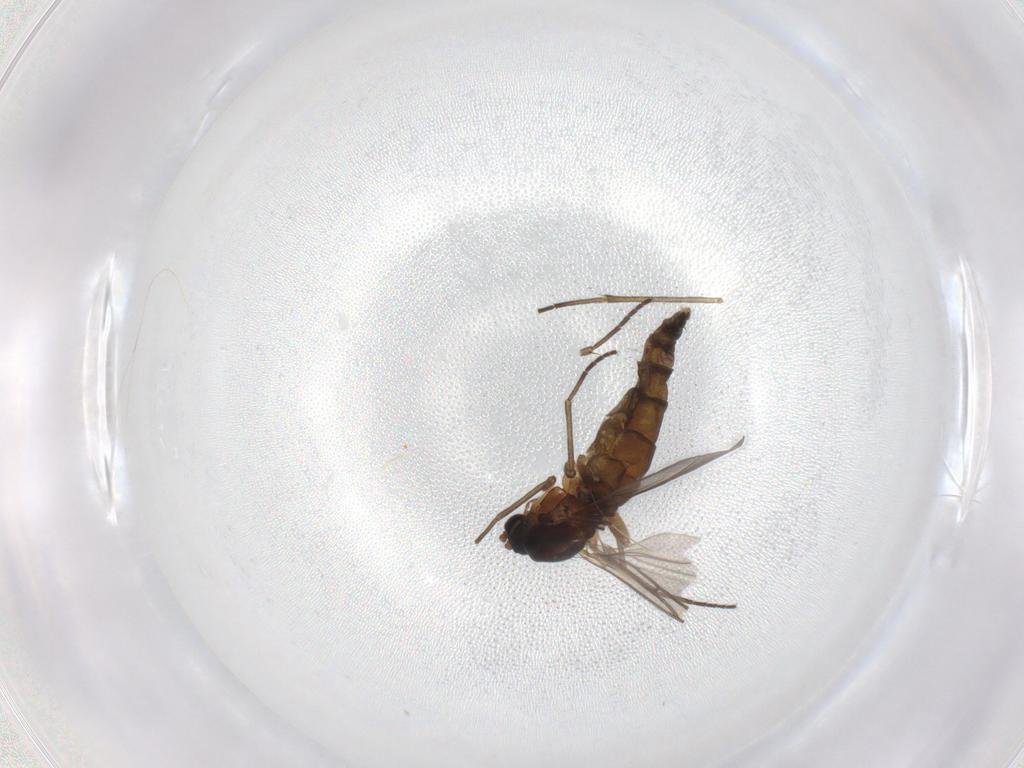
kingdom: Animalia
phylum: Arthropoda
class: Insecta
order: Diptera
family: Sciaridae
